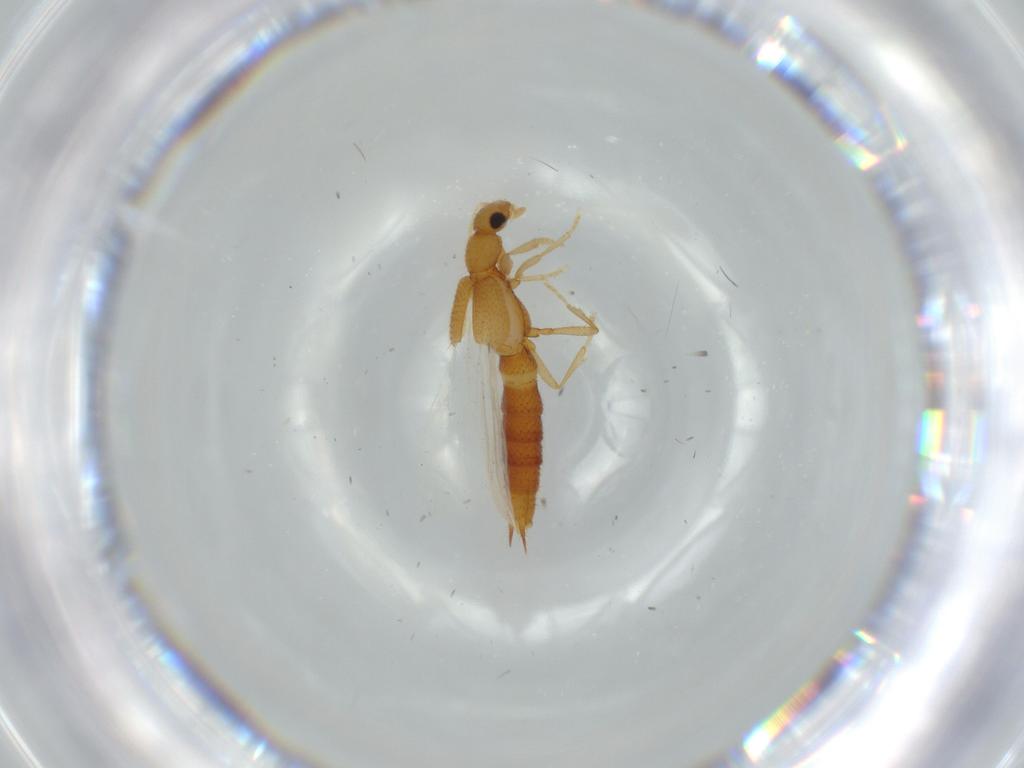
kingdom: Animalia
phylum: Arthropoda
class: Insecta
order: Coleoptera
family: Staphylinidae
